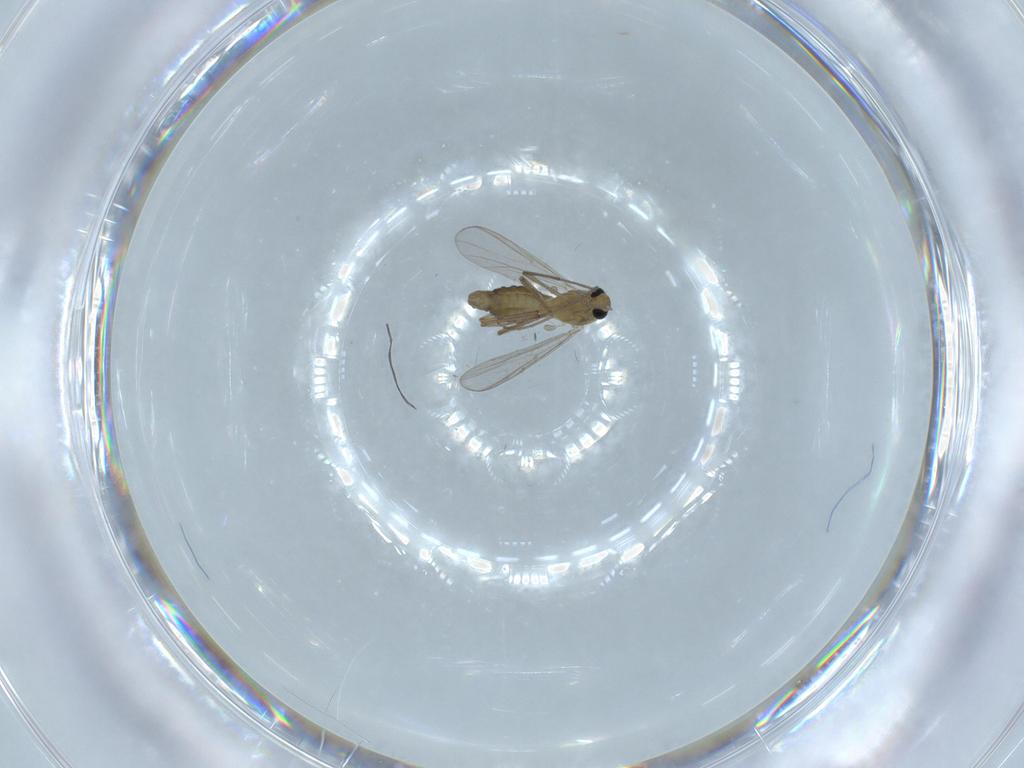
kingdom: Animalia
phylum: Arthropoda
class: Insecta
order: Diptera
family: Chironomidae
